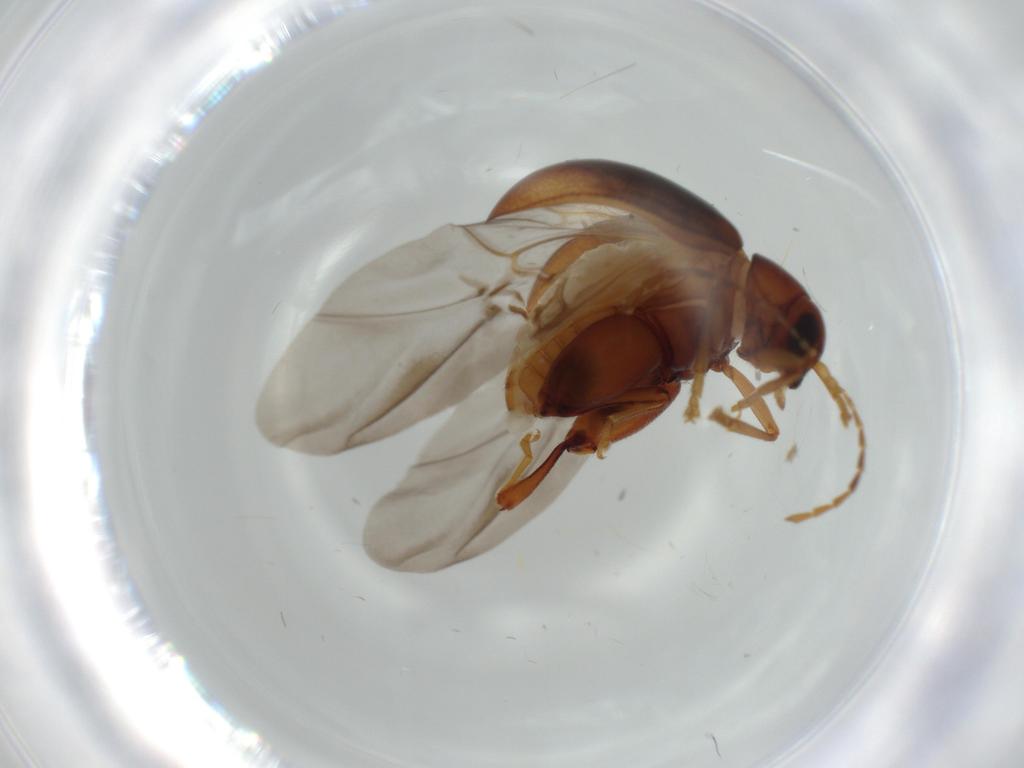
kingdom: Animalia
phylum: Arthropoda
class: Insecta
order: Coleoptera
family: Chrysomelidae
